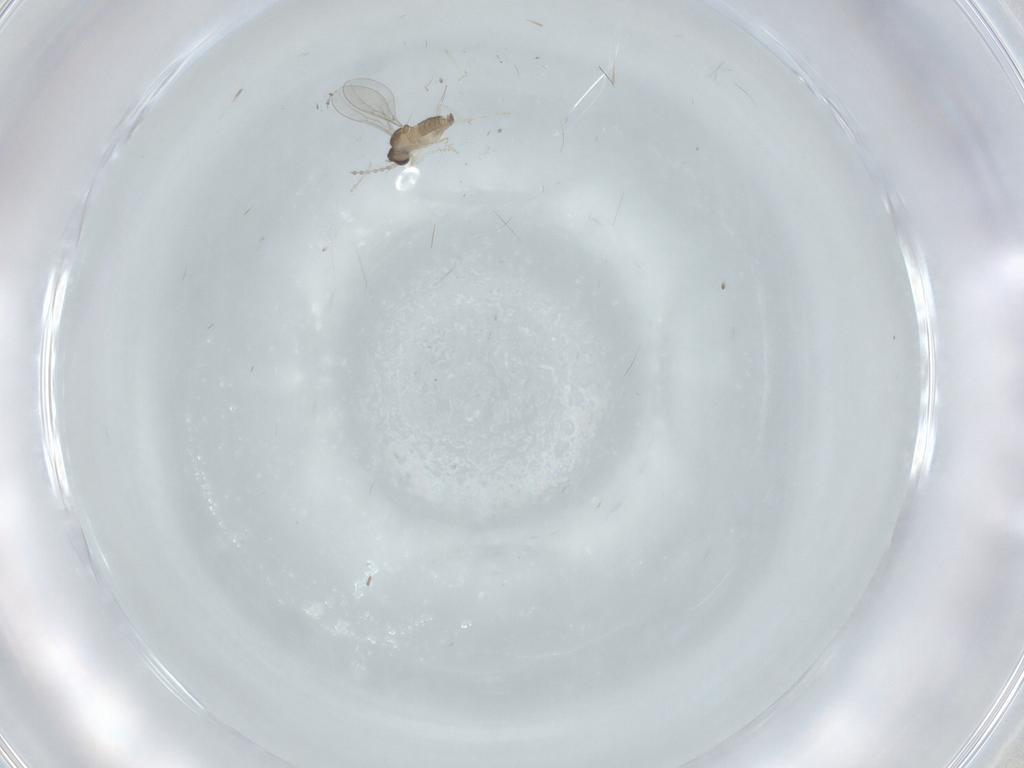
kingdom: Animalia
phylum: Arthropoda
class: Insecta
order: Diptera
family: Cecidomyiidae
